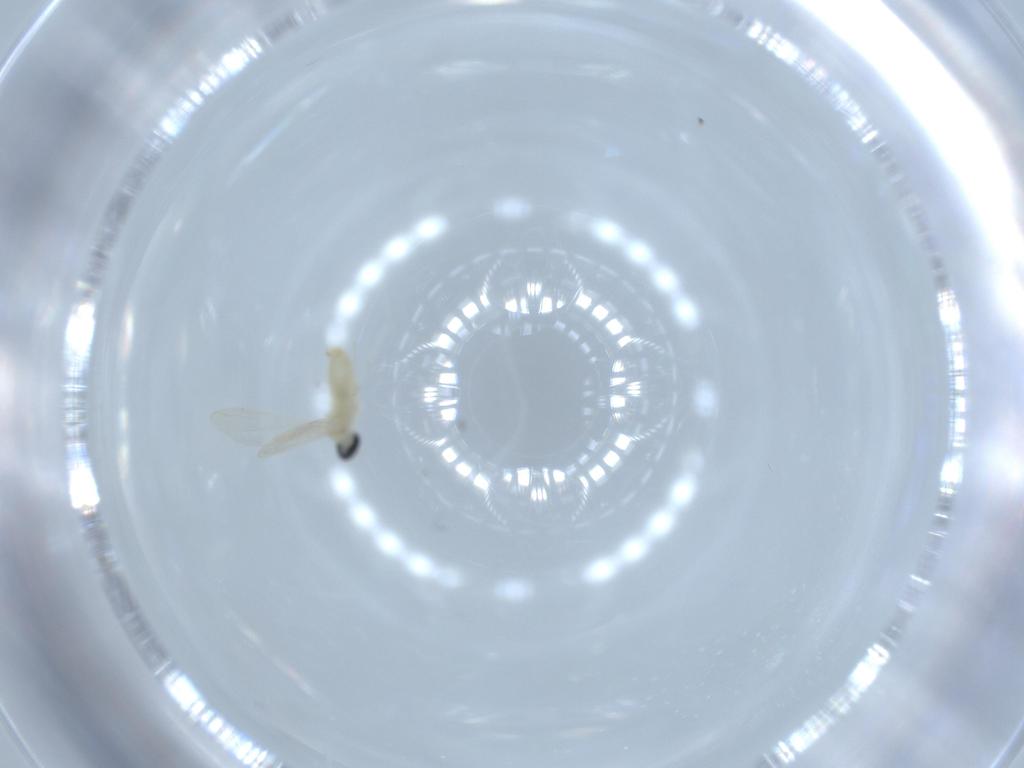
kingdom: Animalia
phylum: Arthropoda
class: Insecta
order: Diptera
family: Cecidomyiidae
